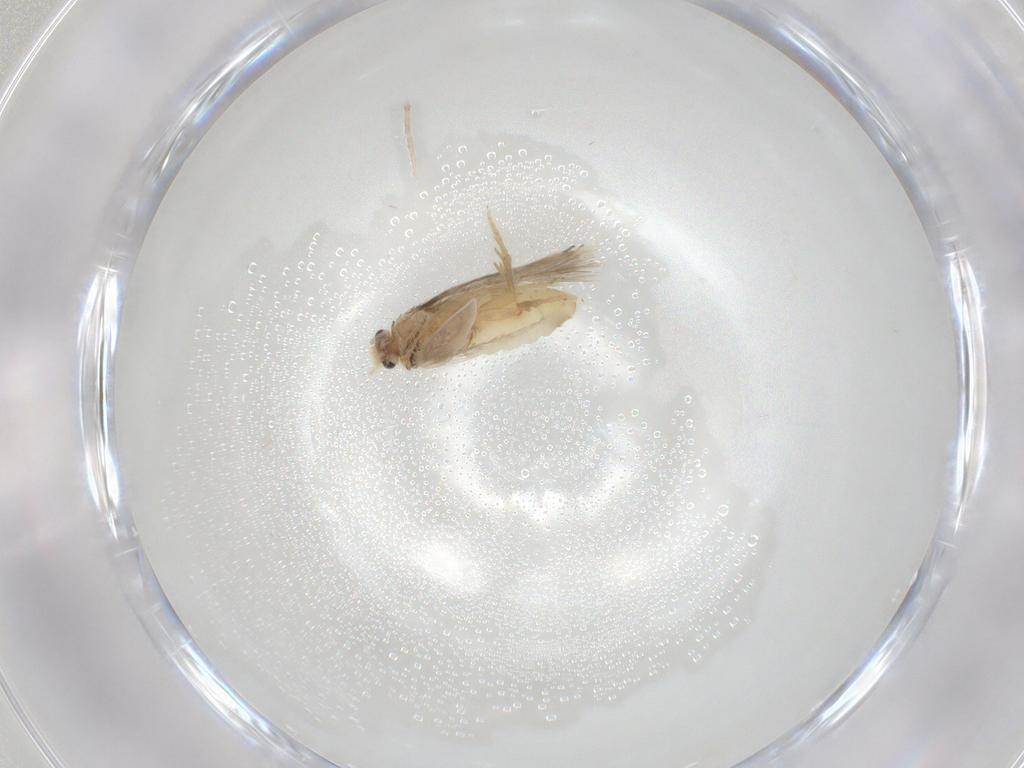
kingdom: Animalia
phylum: Arthropoda
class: Insecta
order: Lepidoptera
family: Nepticulidae
